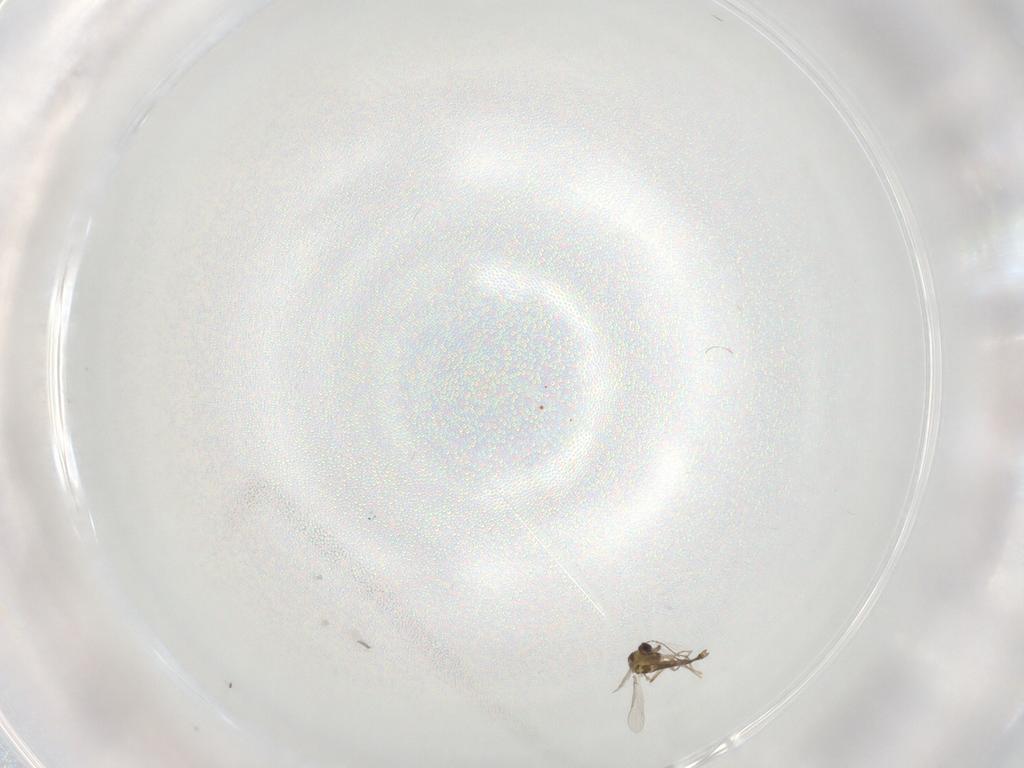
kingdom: Animalia
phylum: Arthropoda
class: Insecta
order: Diptera
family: Chironomidae
